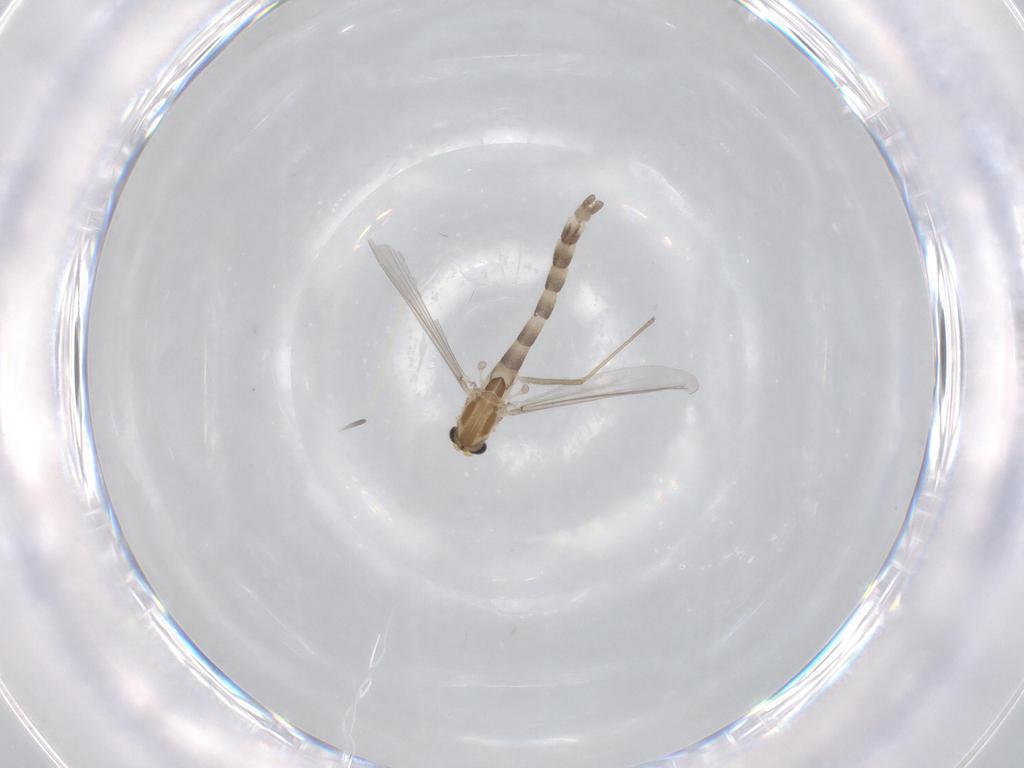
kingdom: Animalia
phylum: Arthropoda
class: Insecta
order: Diptera
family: Chironomidae
